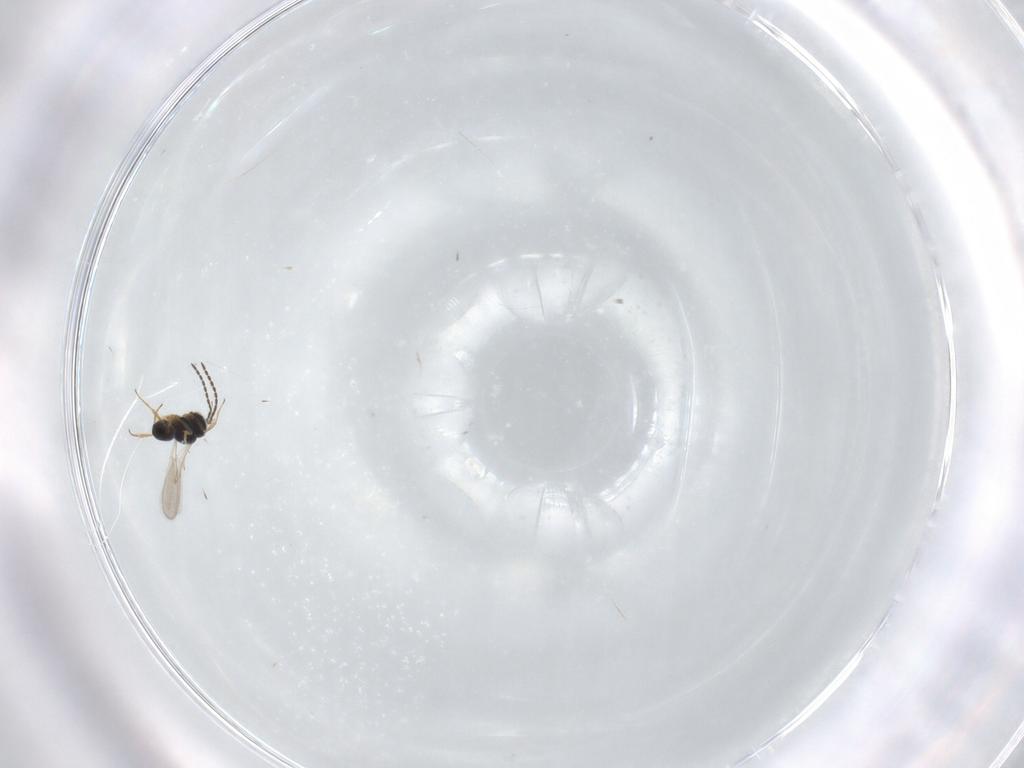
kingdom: Animalia
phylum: Arthropoda
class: Insecta
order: Hymenoptera
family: Scelionidae
